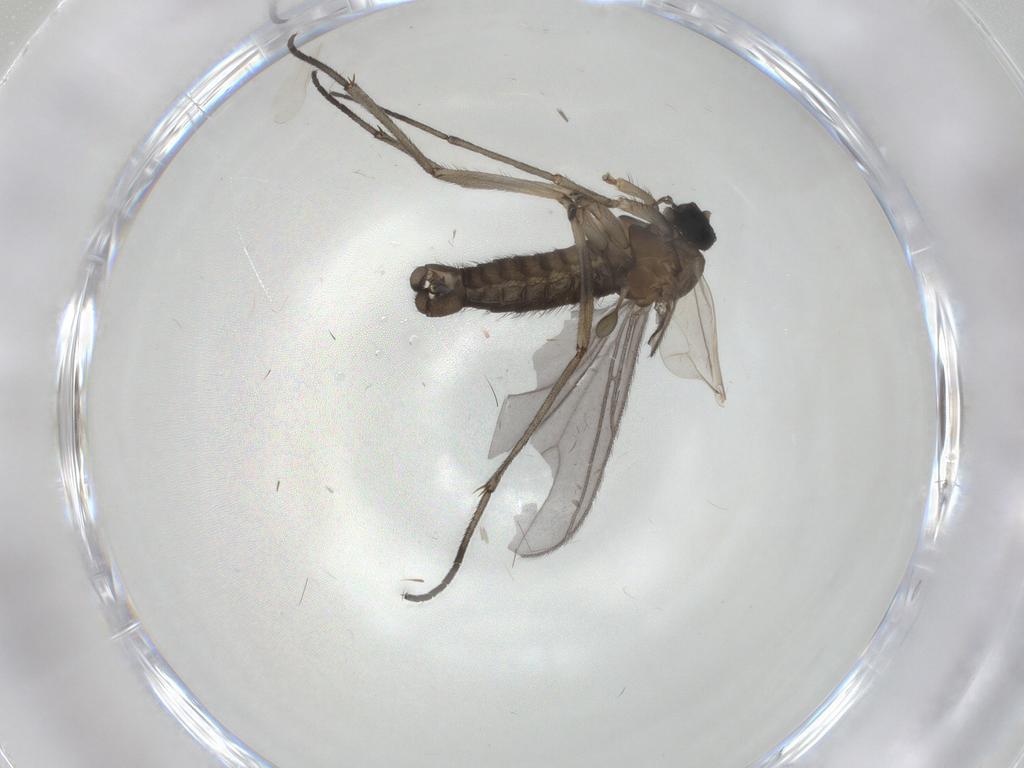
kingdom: Animalia
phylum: Arthropoda
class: Insecta
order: Diptera
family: Sciaridae
